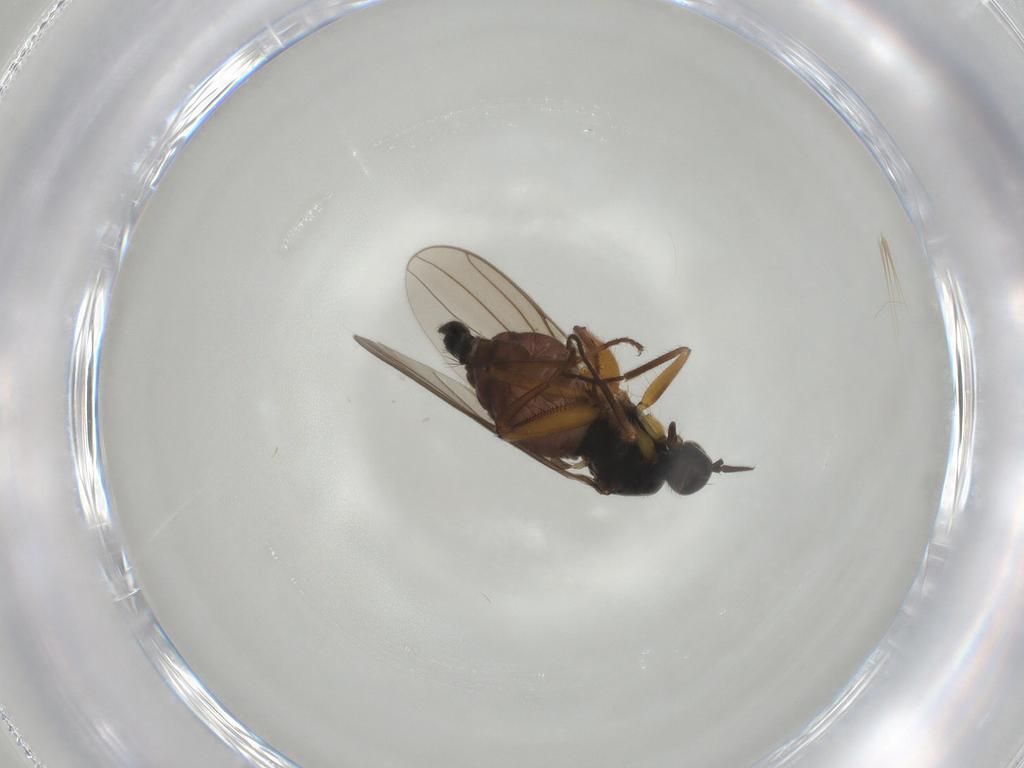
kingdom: Animalia
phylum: Arthropoda
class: Insecta
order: Diptera
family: Hybotidae
